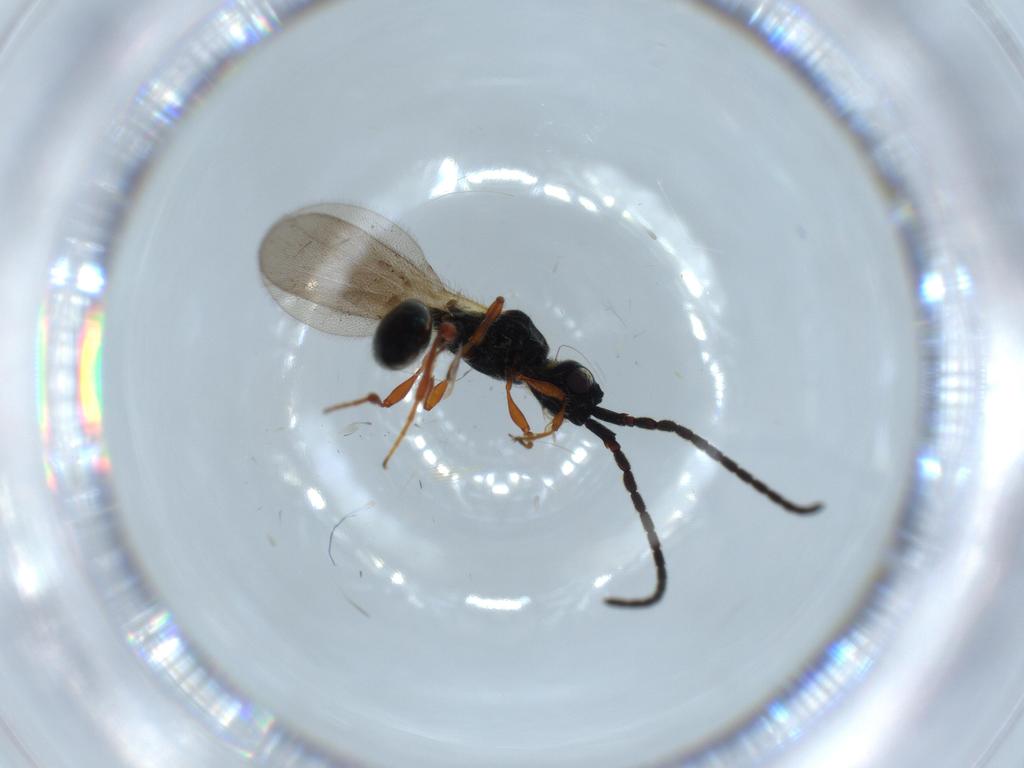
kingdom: Animalia
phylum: Arthropoda
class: Insecta
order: Hymenoptera
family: Diapriidae
